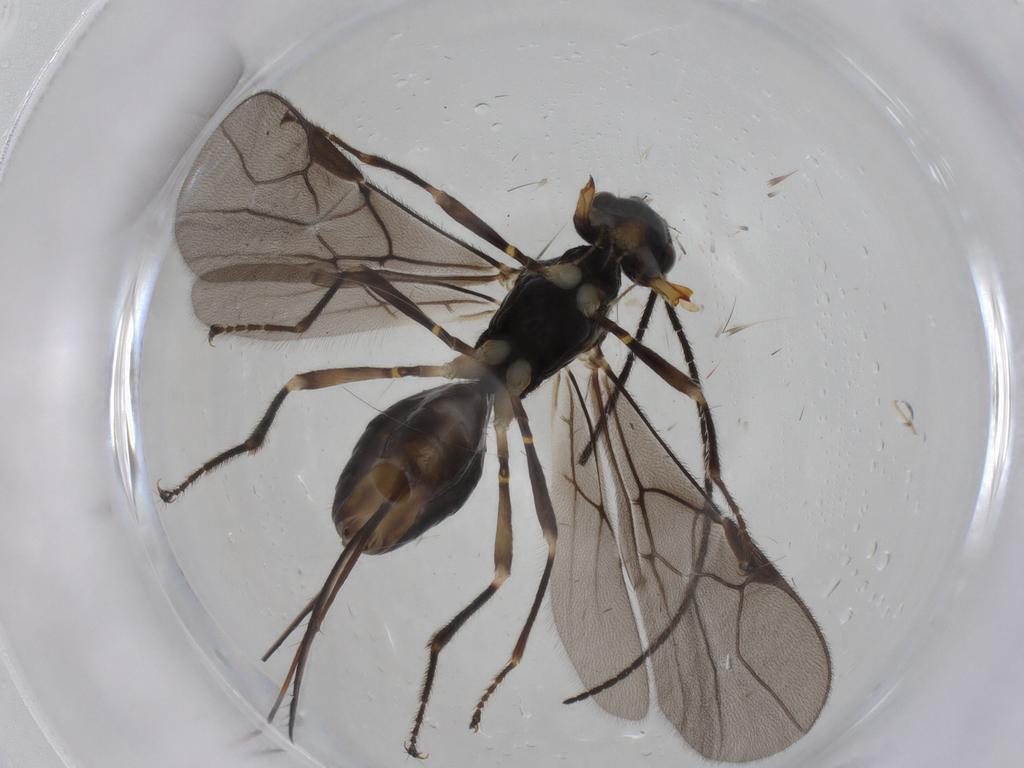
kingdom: Animalia
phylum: Arthropoda
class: Insecta
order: Hymenoptera
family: Braconidae
